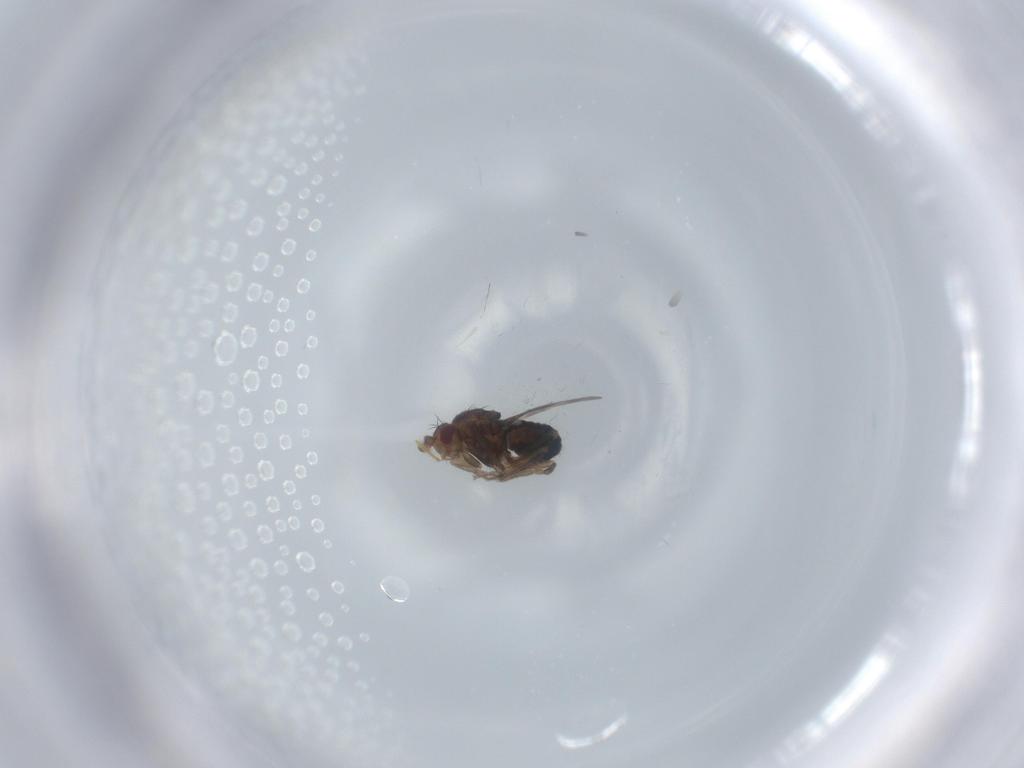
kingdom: Animalia
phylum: Arthropoda
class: Insecta
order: Diptera
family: Sphaeroceridae
